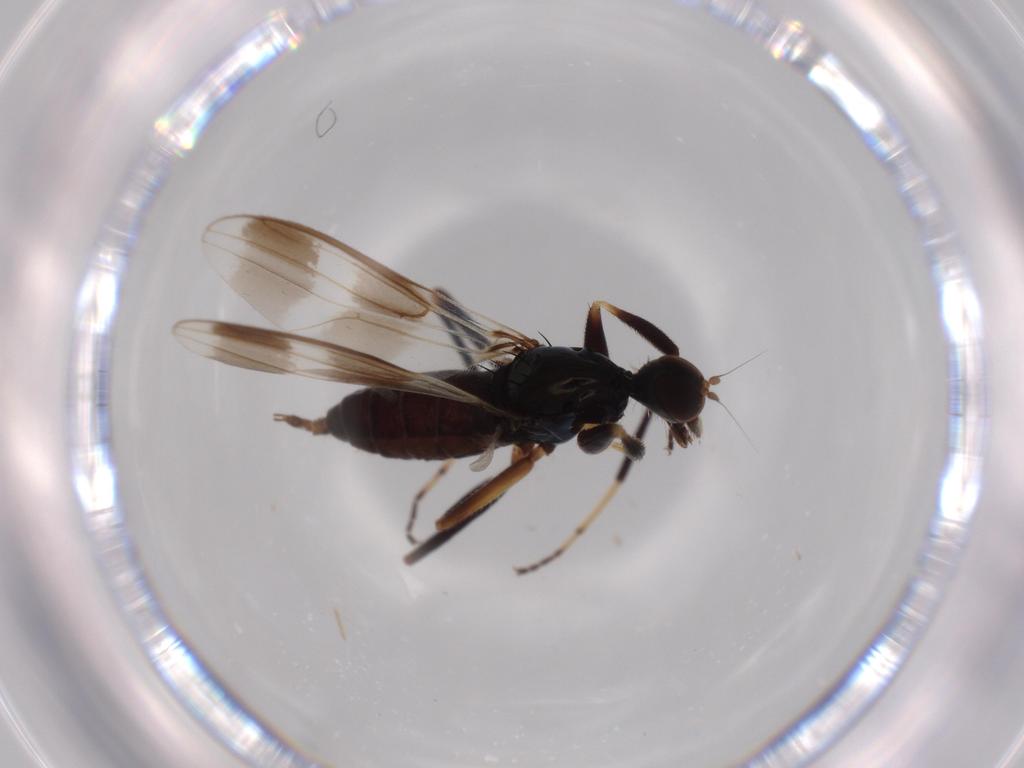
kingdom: Animalia
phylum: Arthropoda
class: Insecta
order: Diptera
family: Hybotidae
